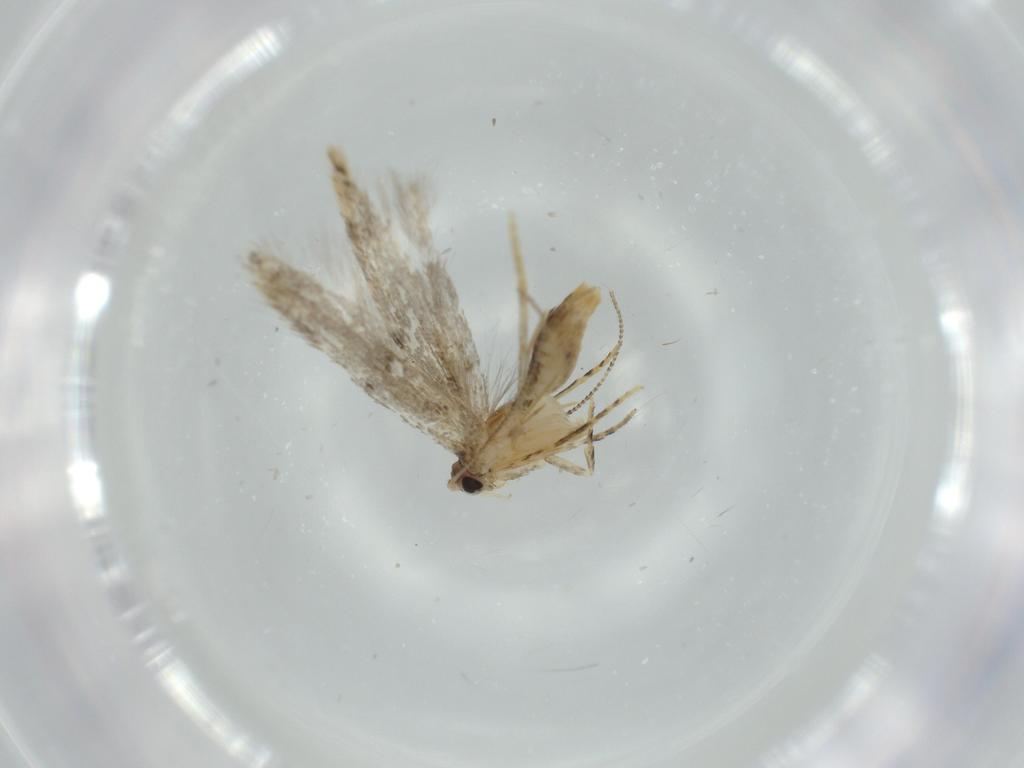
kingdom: Animalia
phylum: Arthropoda
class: Insecta
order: Lepidoptera
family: Tineidae
